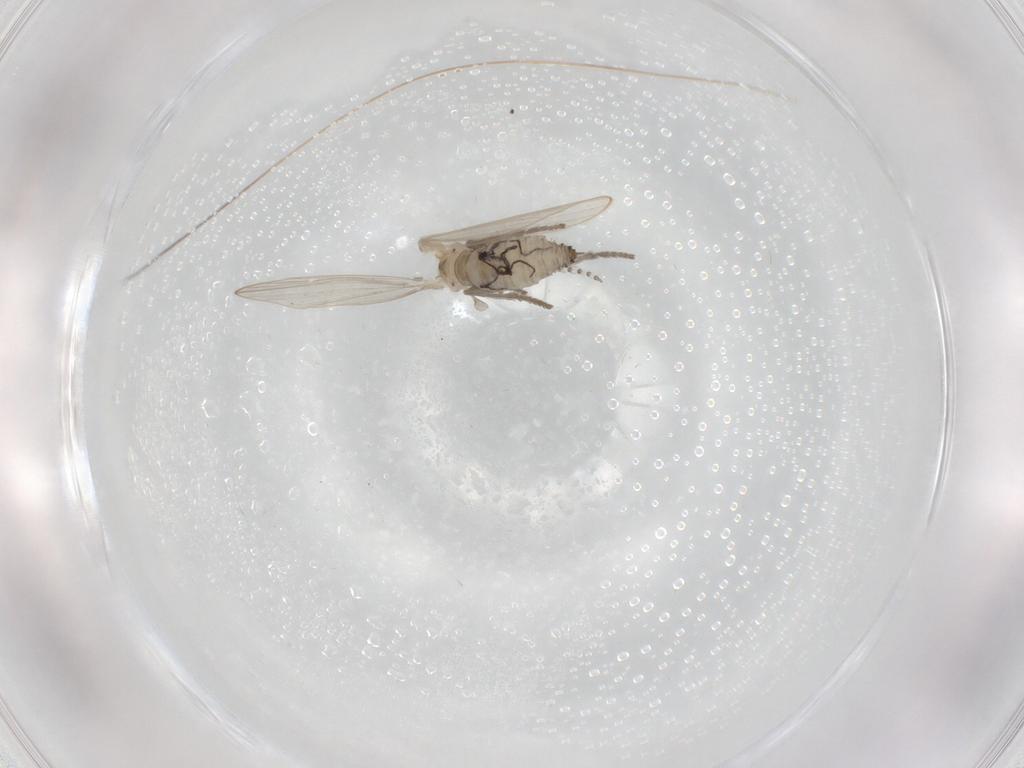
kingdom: Animalia
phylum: Arthropoda
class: Insecta
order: Diptera
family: Psychodidae
